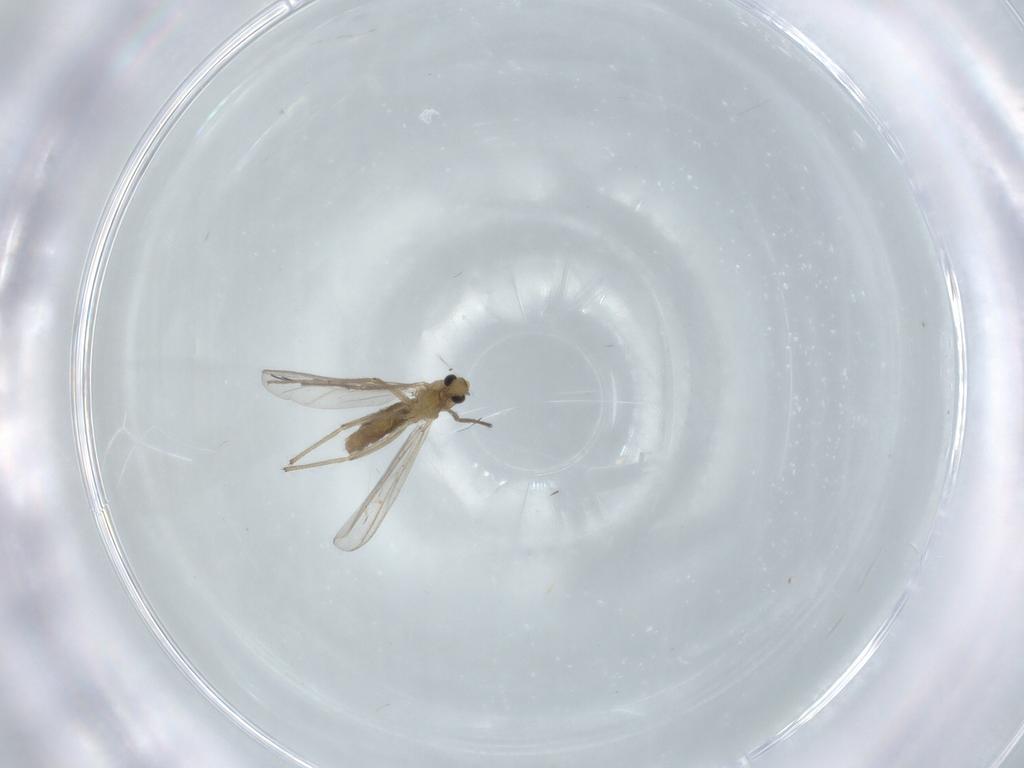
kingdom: Animalia
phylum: Arthropoda
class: Insecta
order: Diptera
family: Chironomidae
